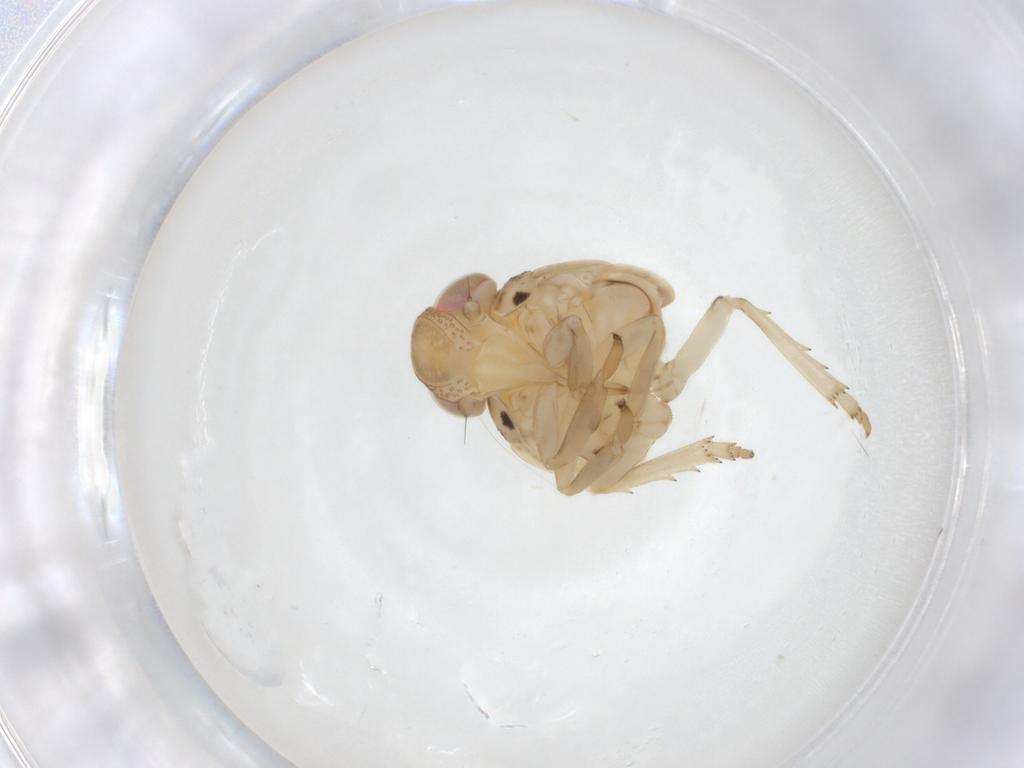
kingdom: Animalia
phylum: Arthropoda
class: Insecta
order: Hemiptera
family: Issidae
